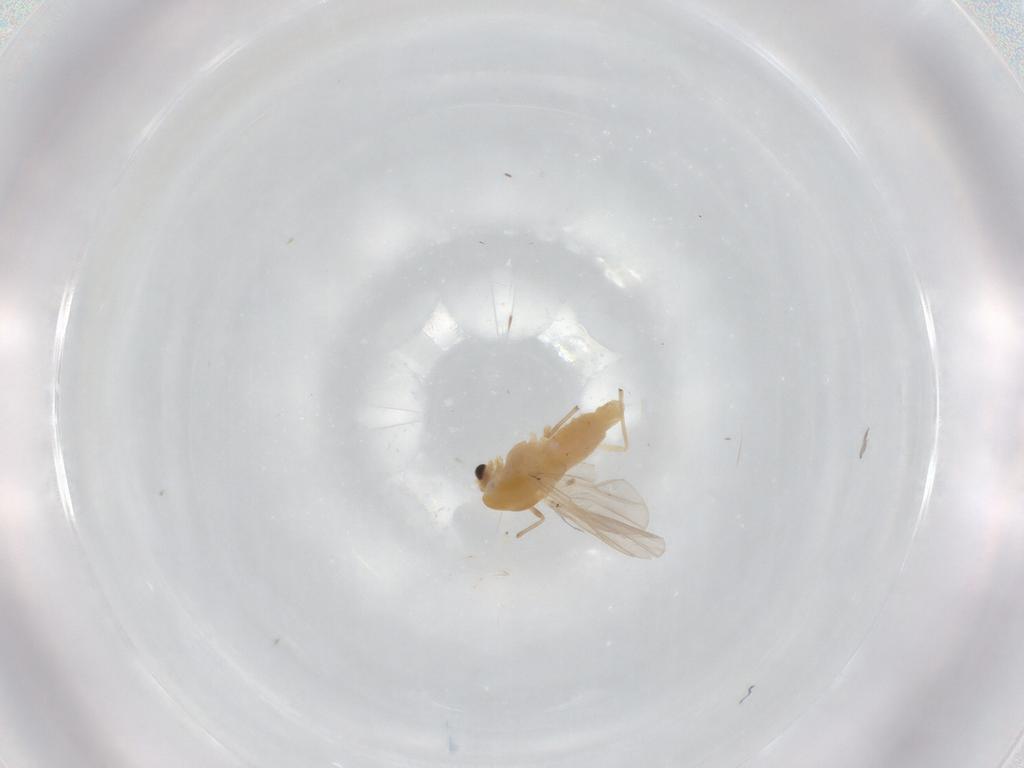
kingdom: Animalia
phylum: Arthropoda
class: Insecta
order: Diptera
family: Chironomidae
